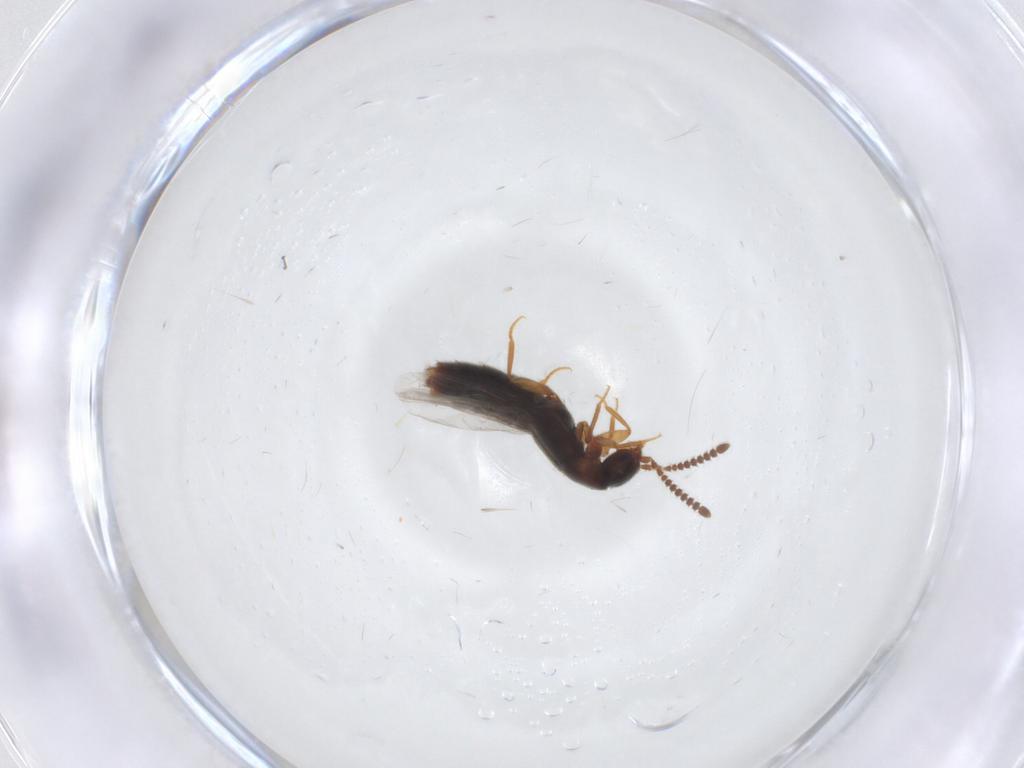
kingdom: Animalia
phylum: Arthropoda
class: Insecta
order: Coleoptera
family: Staphylinidae
